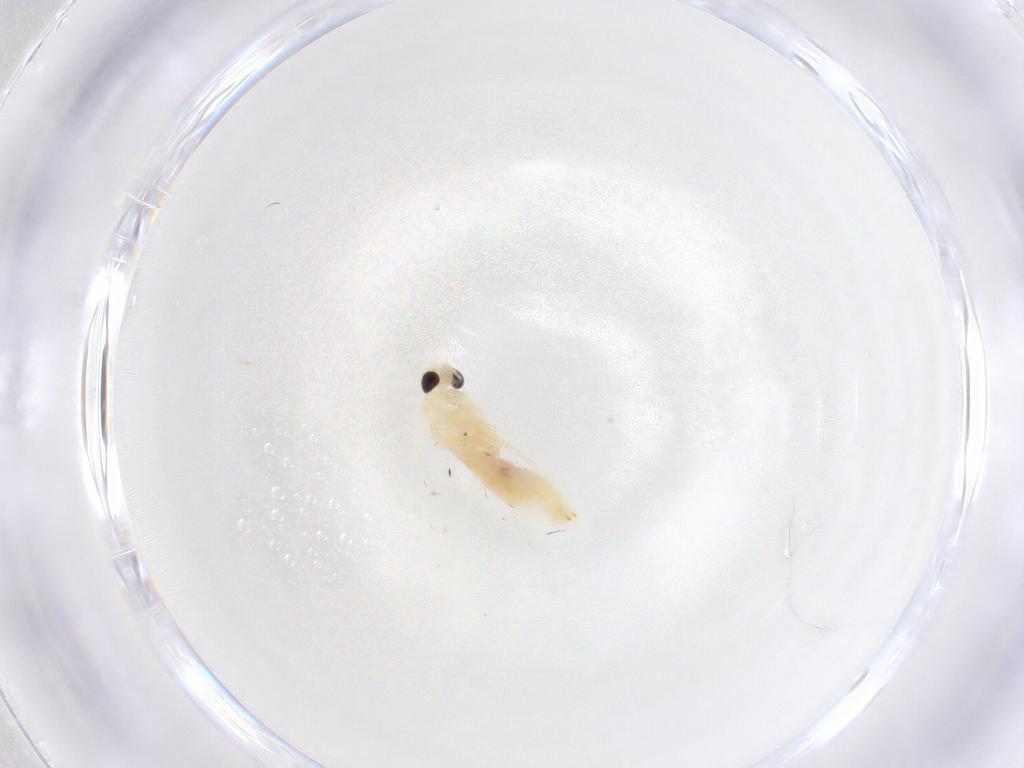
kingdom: Animalia
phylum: Arthropoda
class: Insecta
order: Lepidoptera
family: Gelechiidae
